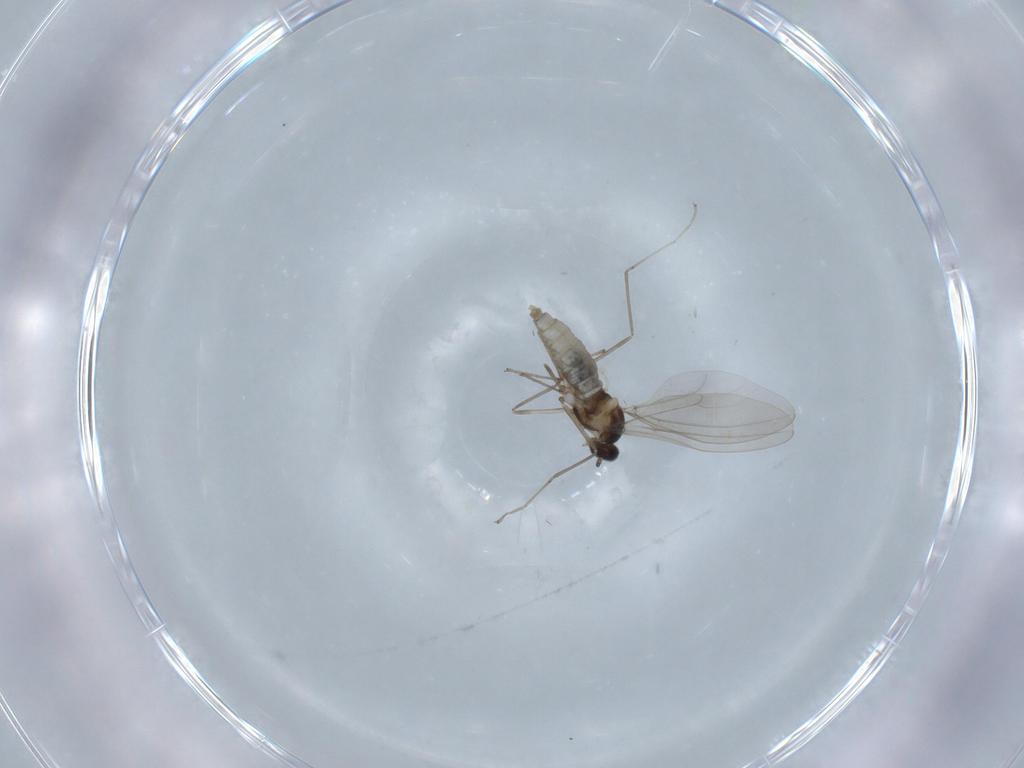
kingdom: Animalia
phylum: Arthropoda
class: Insecta
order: Diptera
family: Cecidomyiidae
